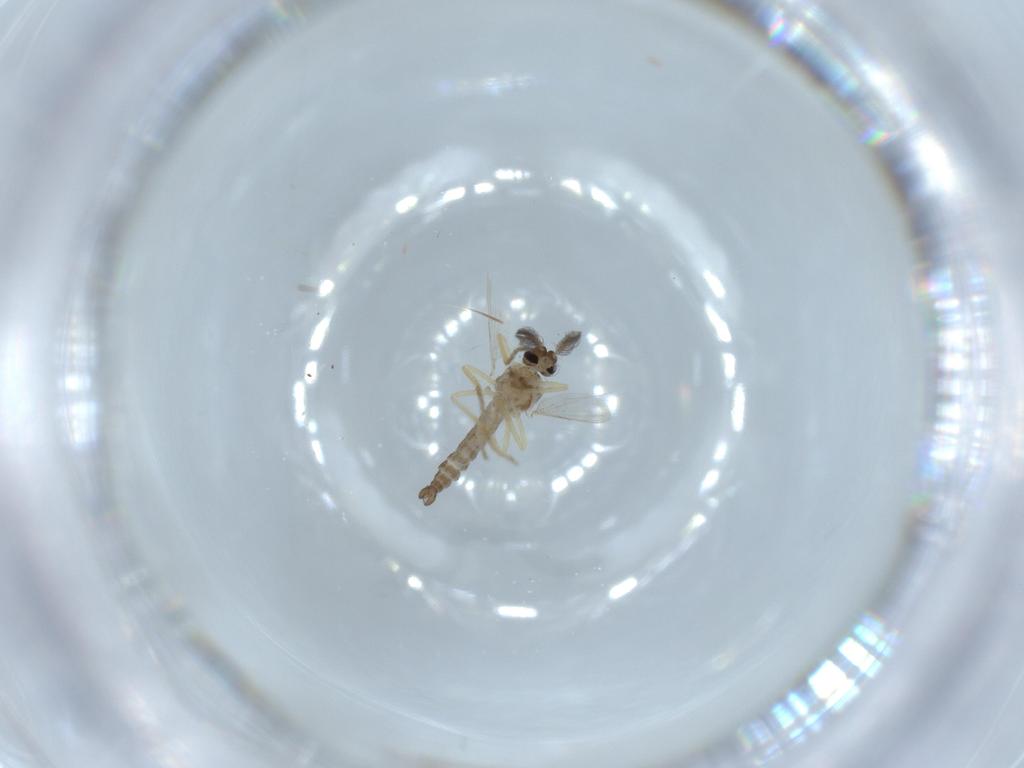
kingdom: Animalia
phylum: Arthropoda
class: Insecta
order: Diptera
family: Ceratopogonidae
